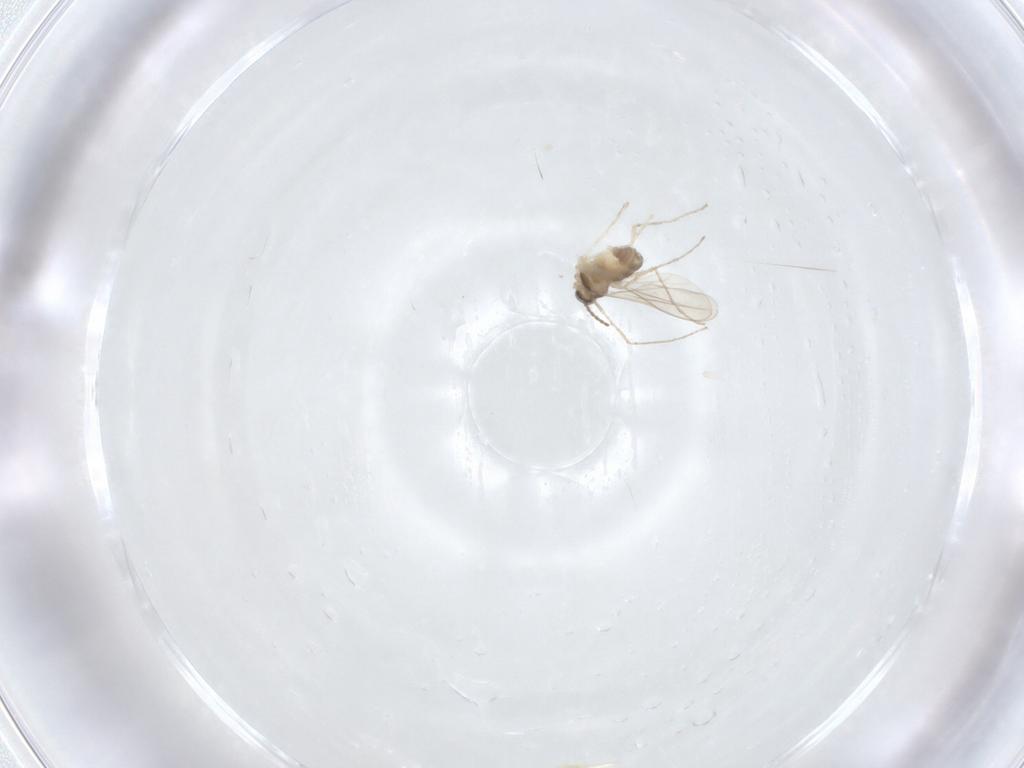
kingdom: Animalia
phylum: Arthropoda
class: Insecta
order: Diptera
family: Cecidomyiidae
